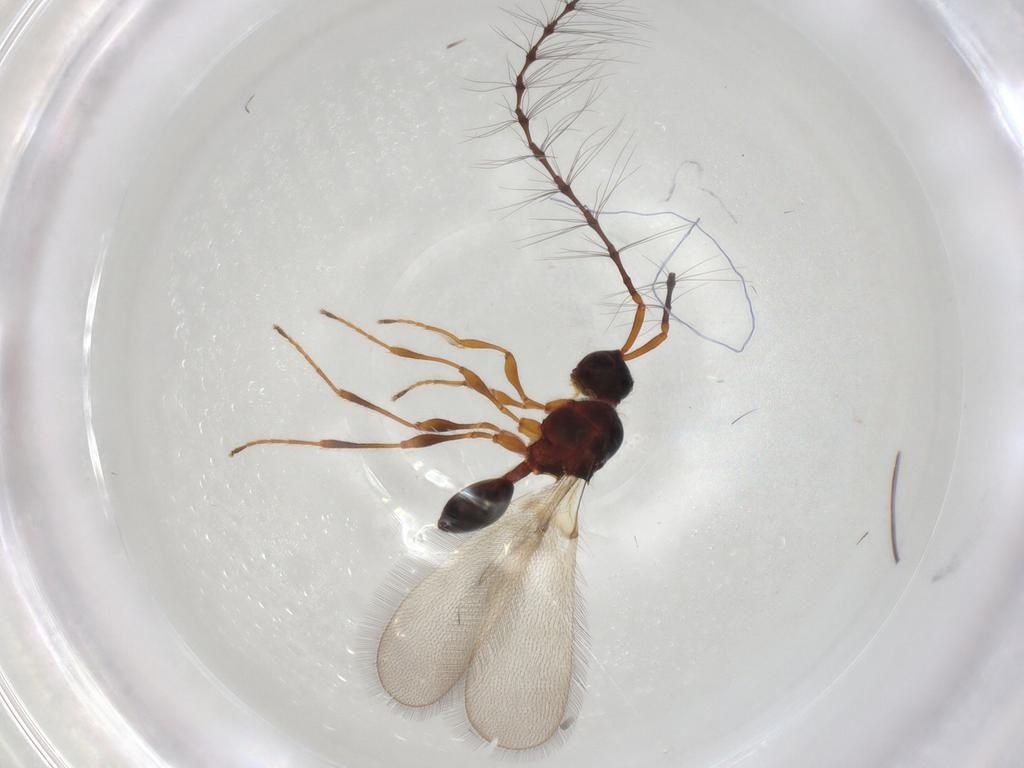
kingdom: Animalia
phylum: Arthropoda
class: Insecta
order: Hymenoptera
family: Diapriidae
